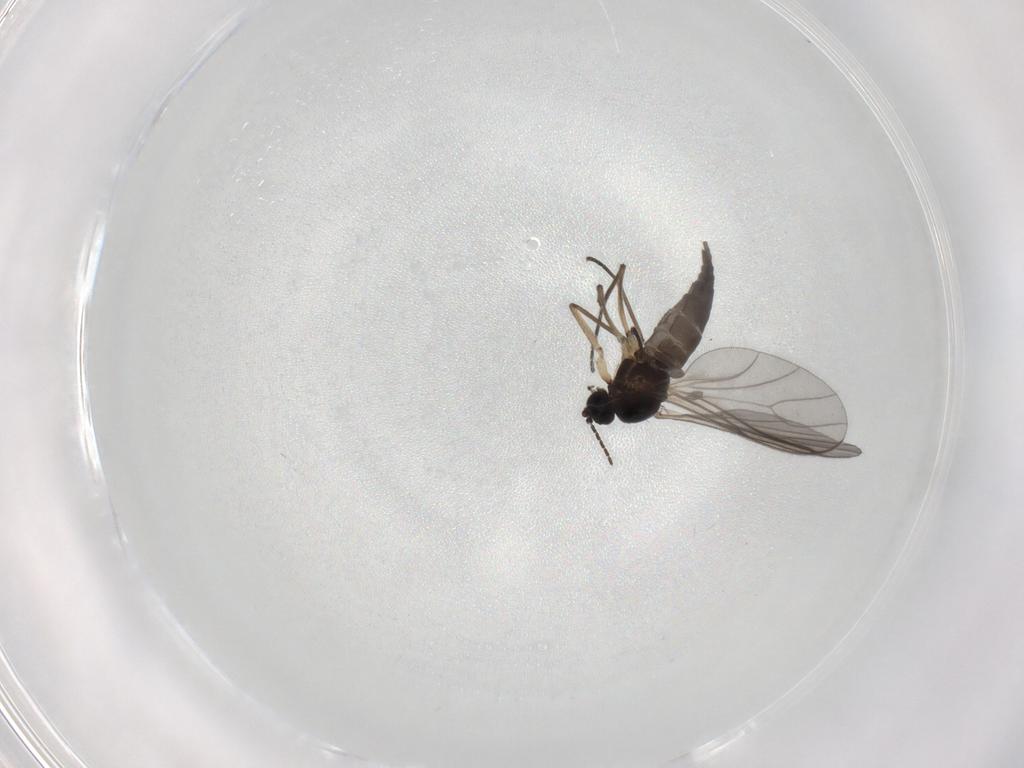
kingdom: Animalia
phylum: Arthropoda
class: Insecta
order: Diptera
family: Sciaridae
